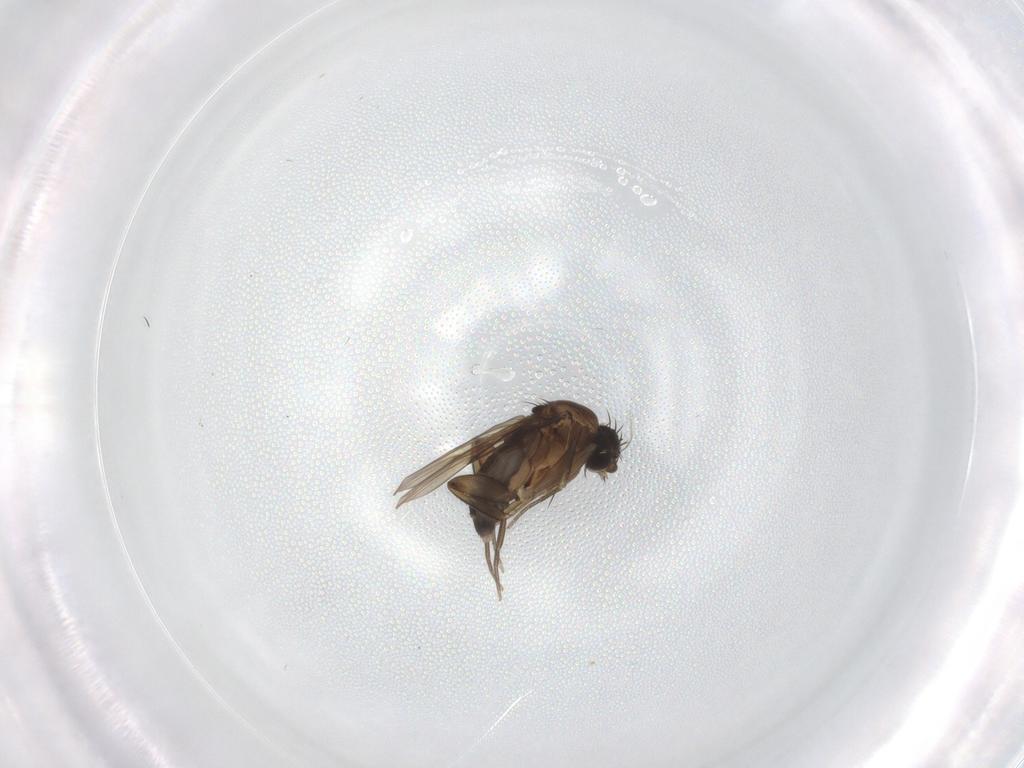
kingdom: Animalia
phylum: Arthropoda
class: Insecta
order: Diptera
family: Phoridae
